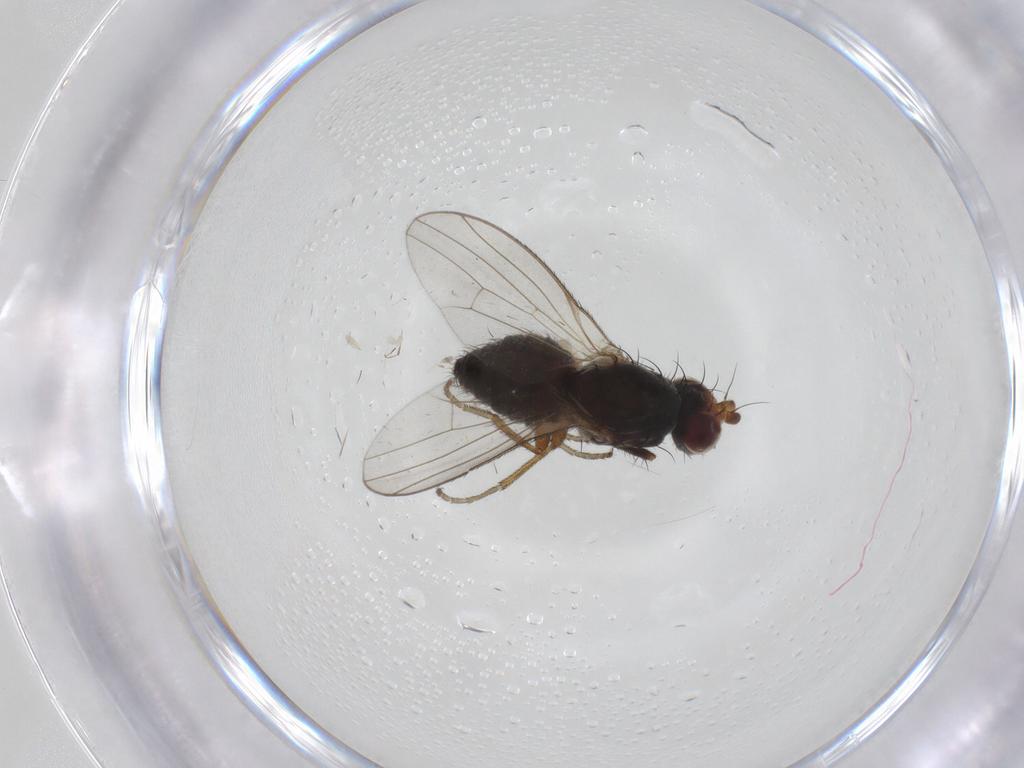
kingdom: Animalia
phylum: Arthropoda
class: Insecta
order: Diptera
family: Heleomyzidae
